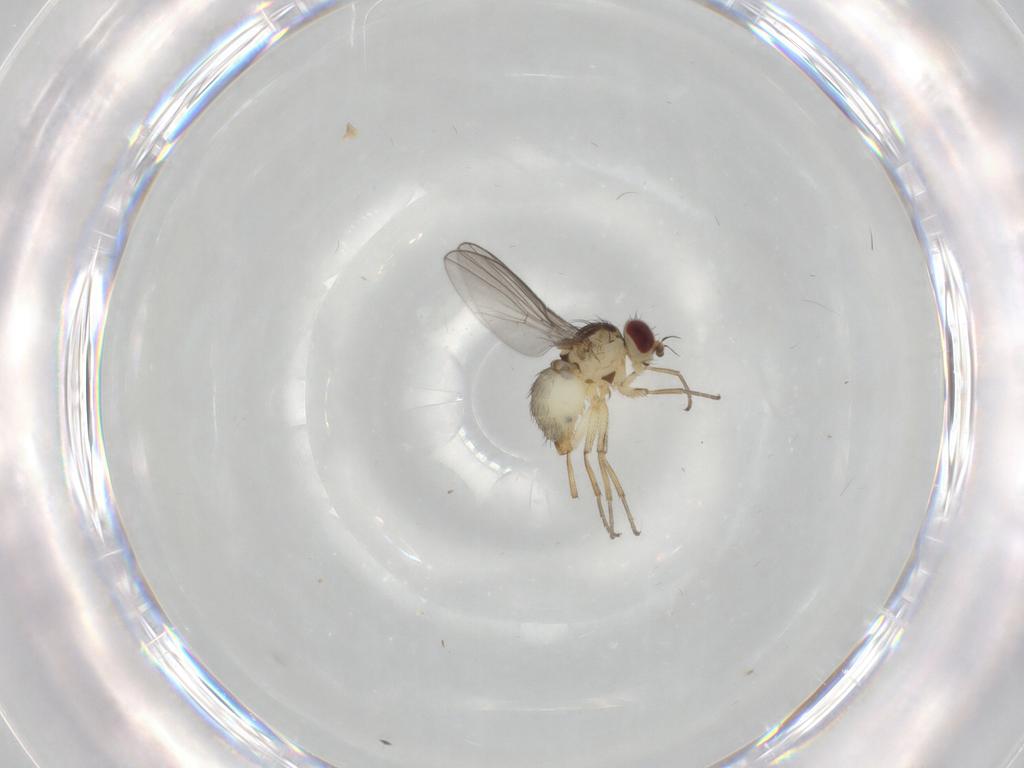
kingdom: Animalia
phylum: Arthropoda
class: Insecta
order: Diptera
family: Agromyzidae
